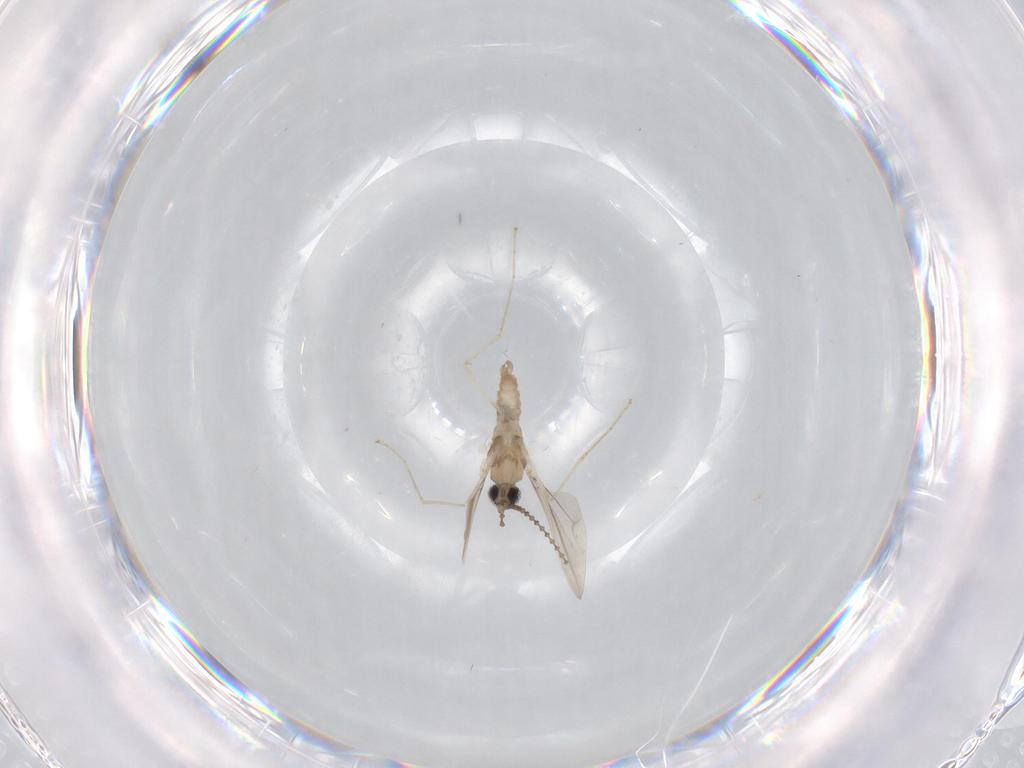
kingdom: Animalia
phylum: Arthropoda
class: Insecta
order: Diptera
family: Cecidomyiidae
